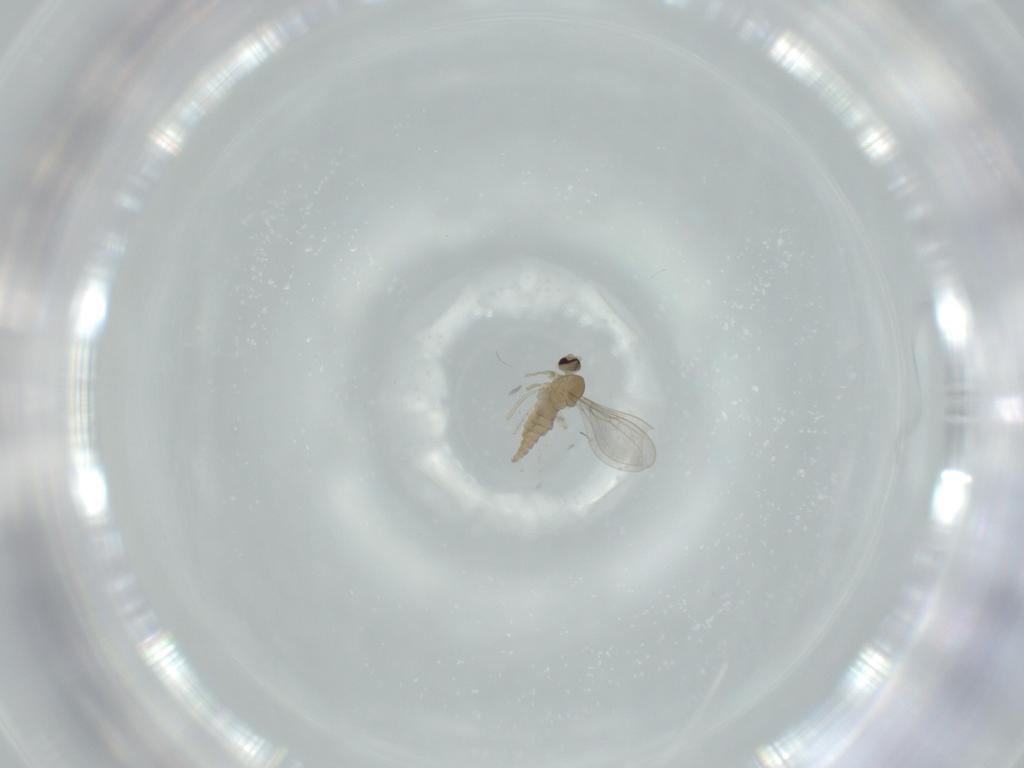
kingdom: Animalia
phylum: Arthropoda
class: Insecta
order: Diptera
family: Cecidomyiidae
